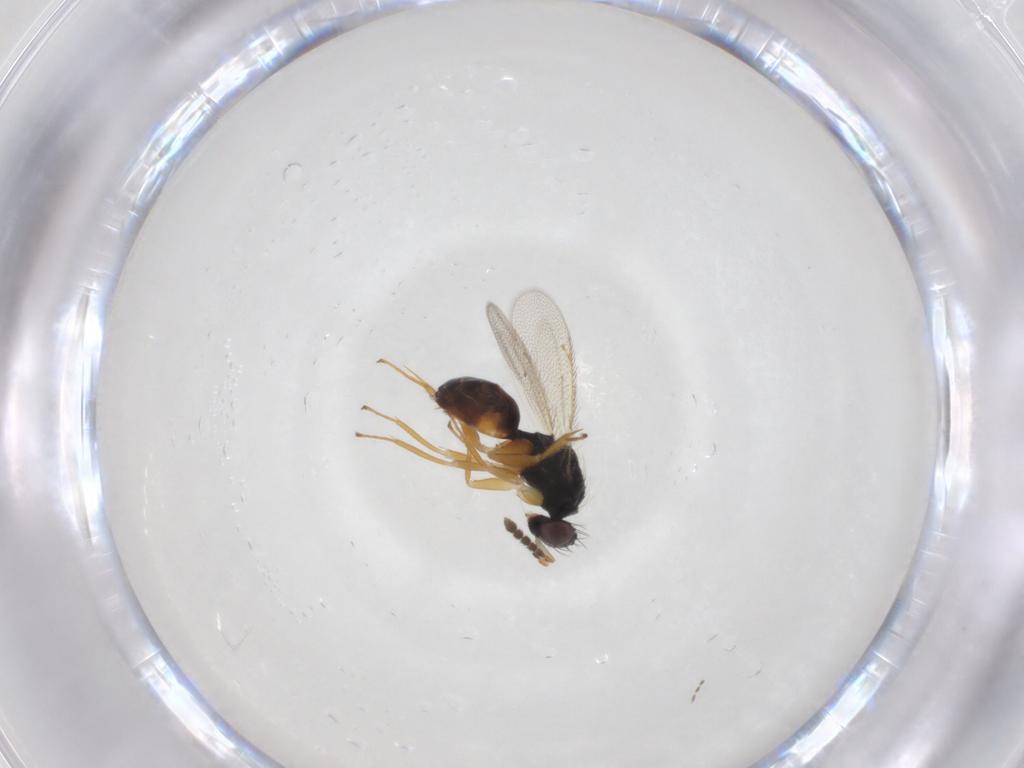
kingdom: Animalia
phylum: Arthropoda
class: Insecta
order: Hymenoptera
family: Eulophidae
